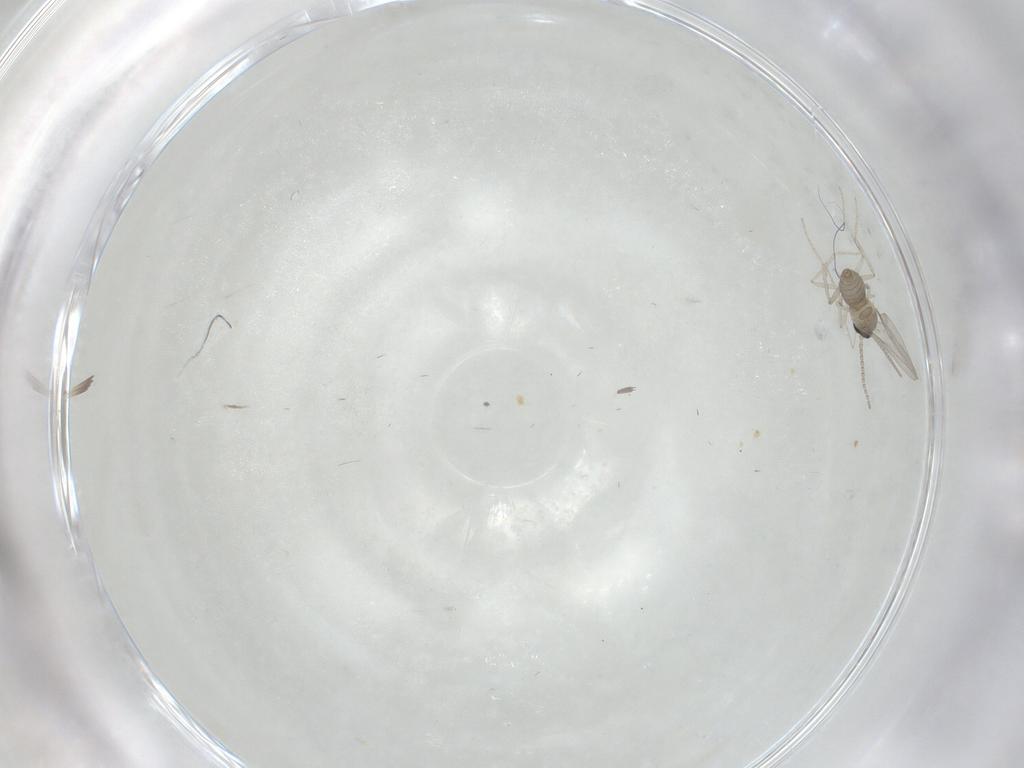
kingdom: Animalia
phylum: Arthropoda
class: Insecta
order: Diptera
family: Cecidomyiidae
